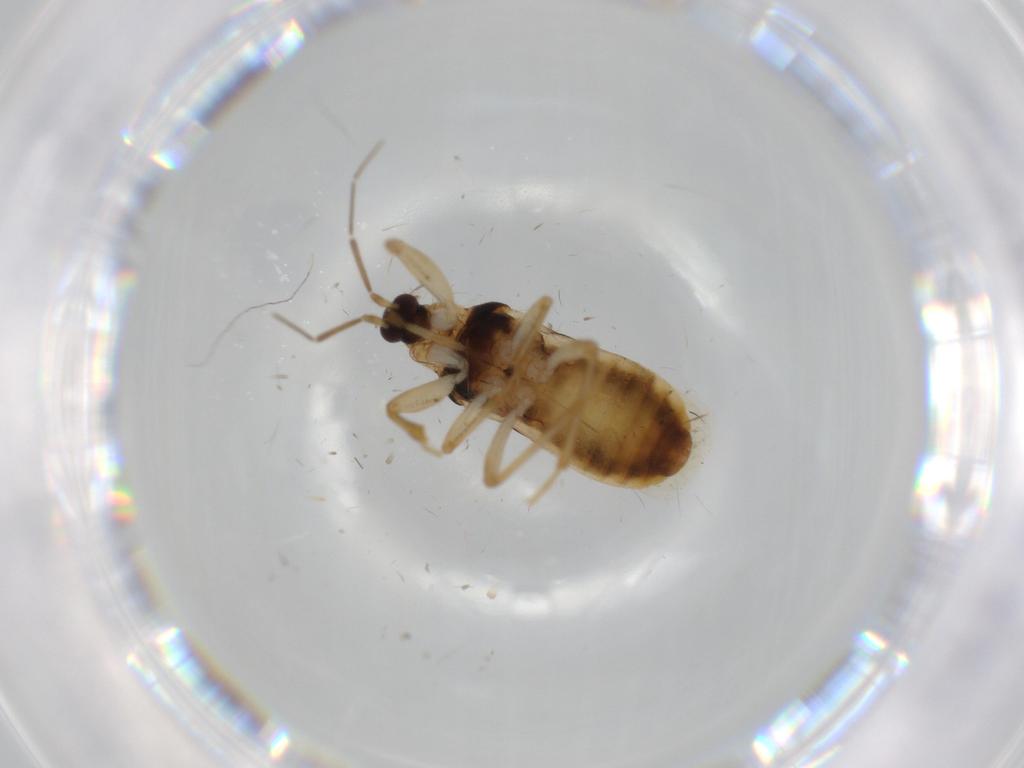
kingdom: Animalia
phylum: Arthropoda
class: Insecta
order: Hemiptera
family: Nabidae
